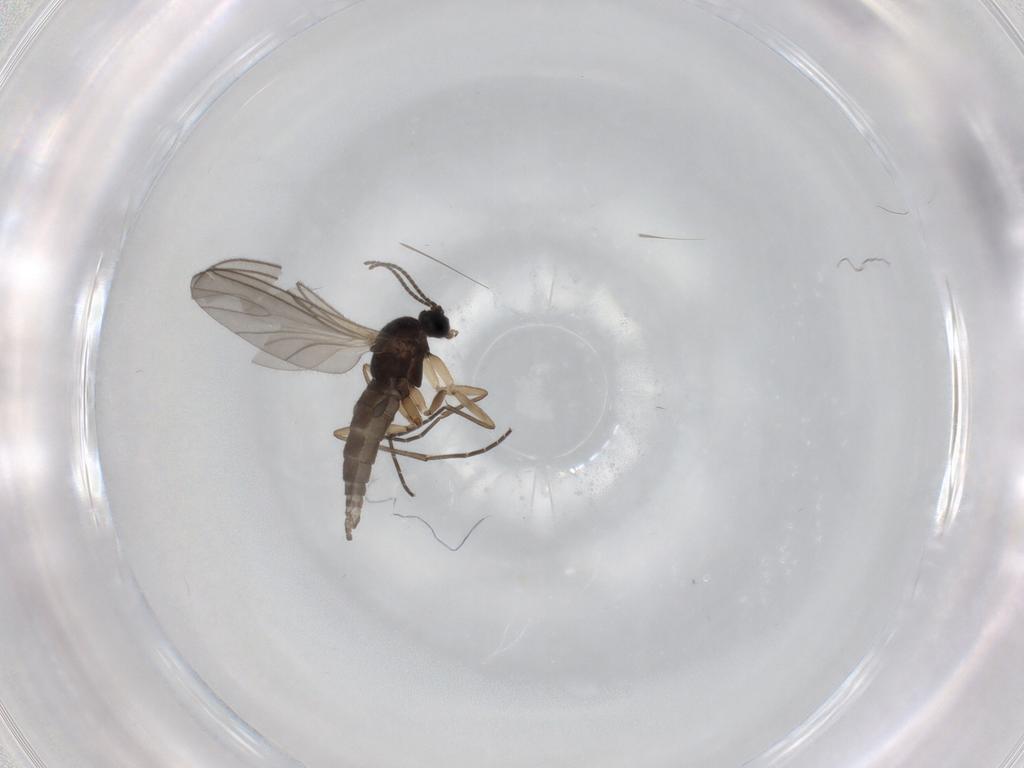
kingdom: Animalia
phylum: Arthropoda
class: Insecta
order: Diptera
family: Sciaridae
